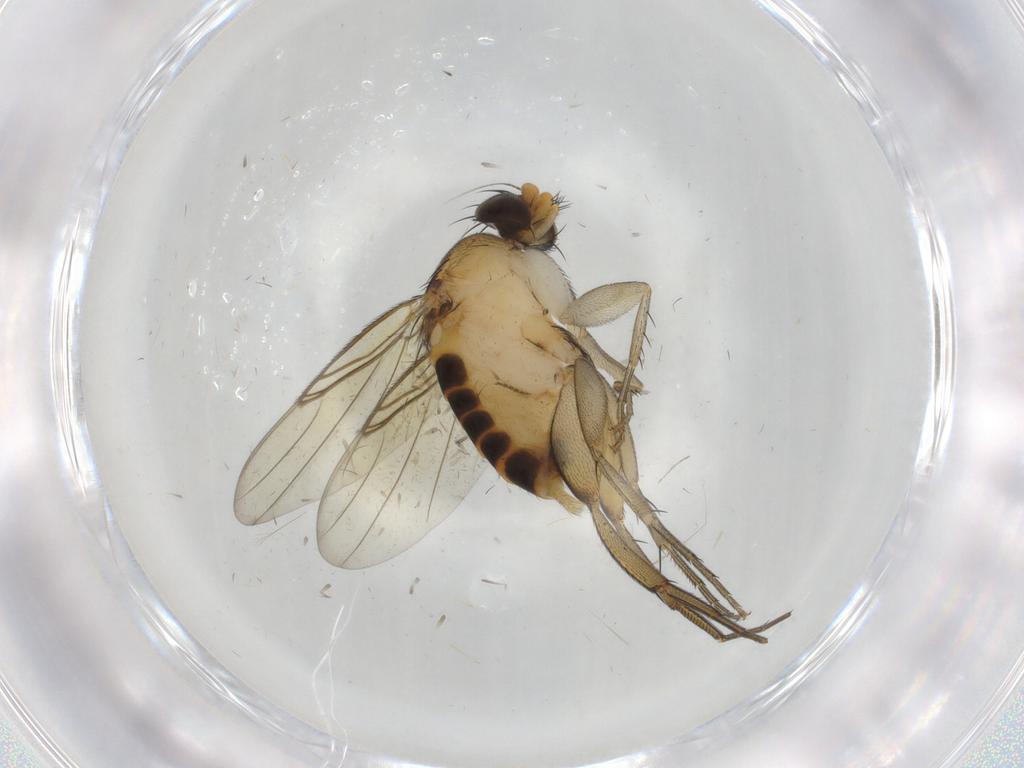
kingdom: Animalia
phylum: Arthropoda
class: Insecta
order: Diptera
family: Phoridae
